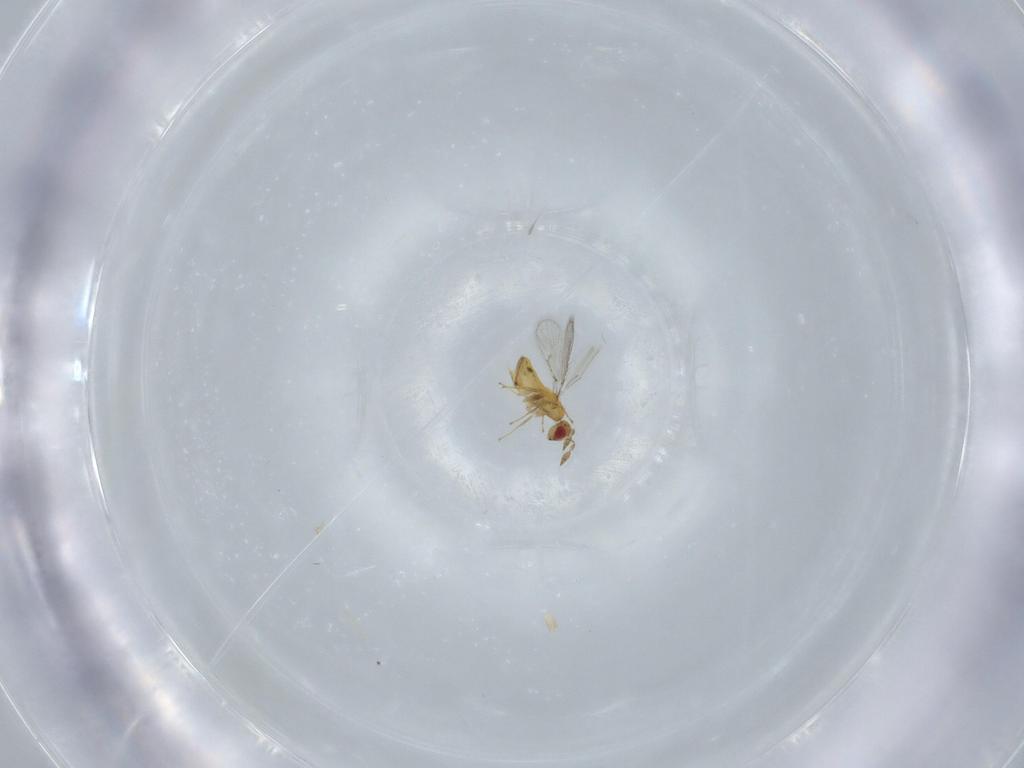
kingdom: Animalia
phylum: Arthropoda
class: Insecta
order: Hymenoptera
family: Trichogrammatidae
